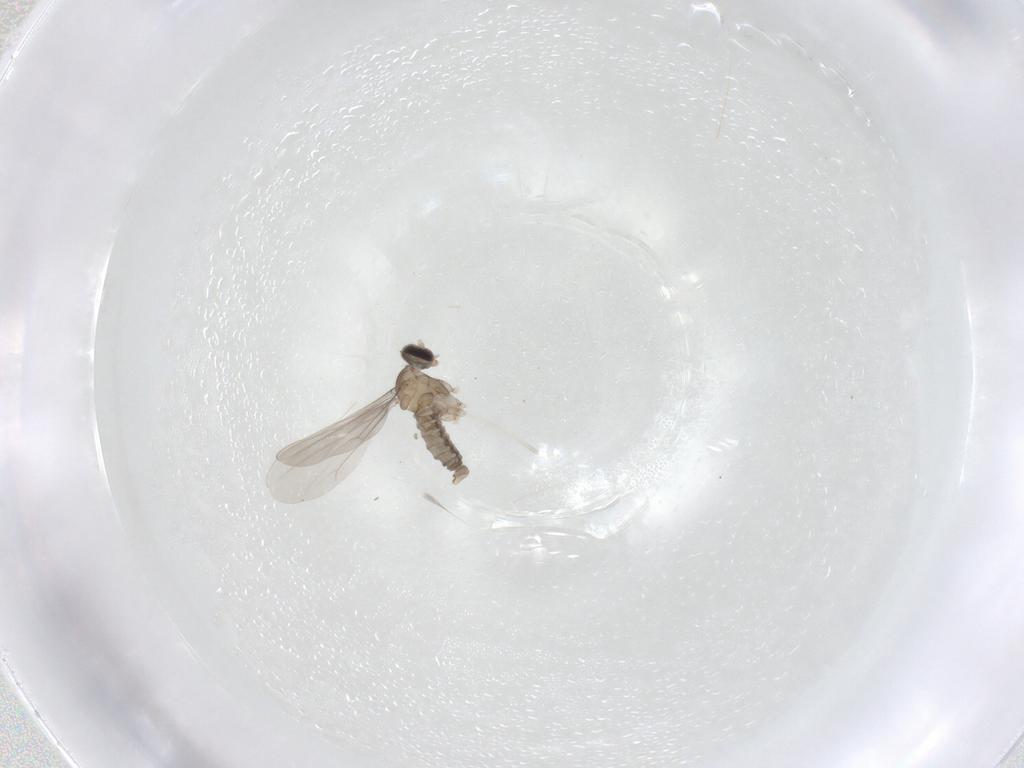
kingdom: Animalia
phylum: Arthropoda
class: Insecta
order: Diptera
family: Cecidomyiidae
